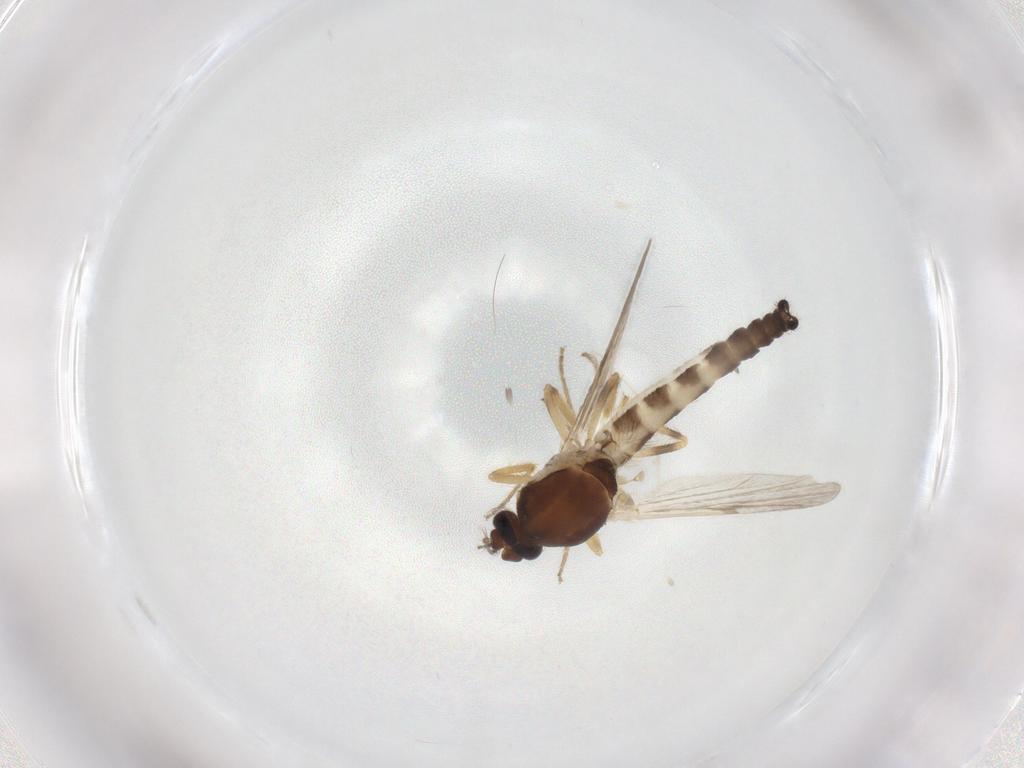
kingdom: Animalia
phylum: Arthropoda
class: Insecta
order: Diptera
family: Ceratopogonidae
